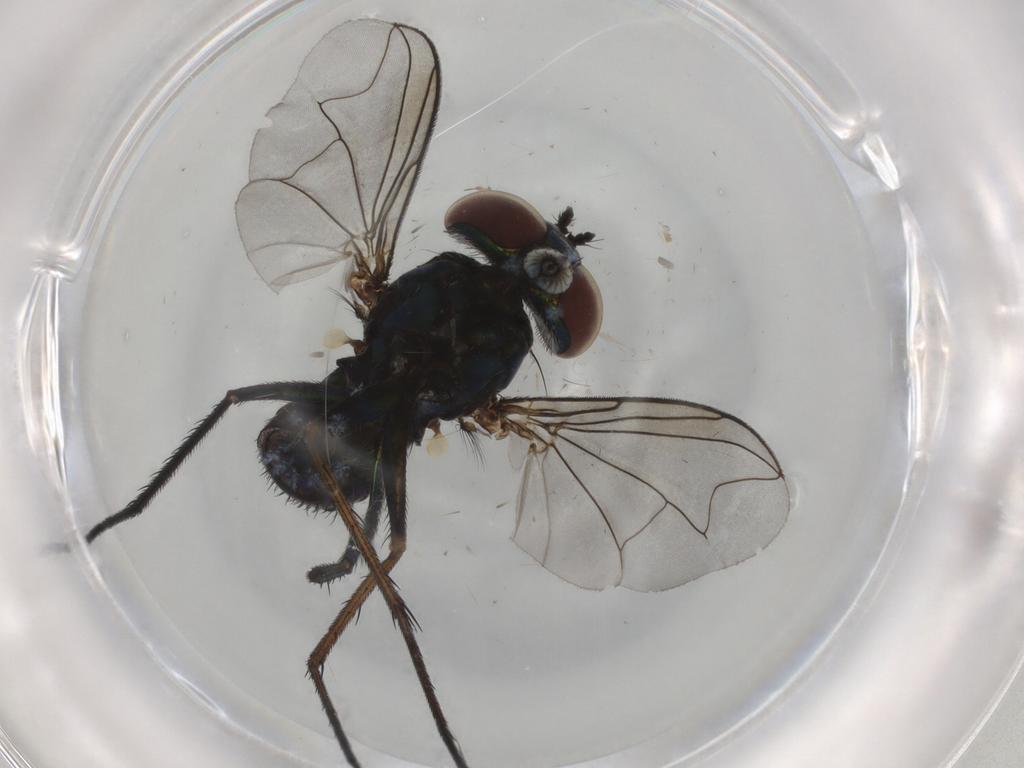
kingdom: Animalia
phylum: Arthropoda
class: Insecta
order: Diptera
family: Dolichopodidae
